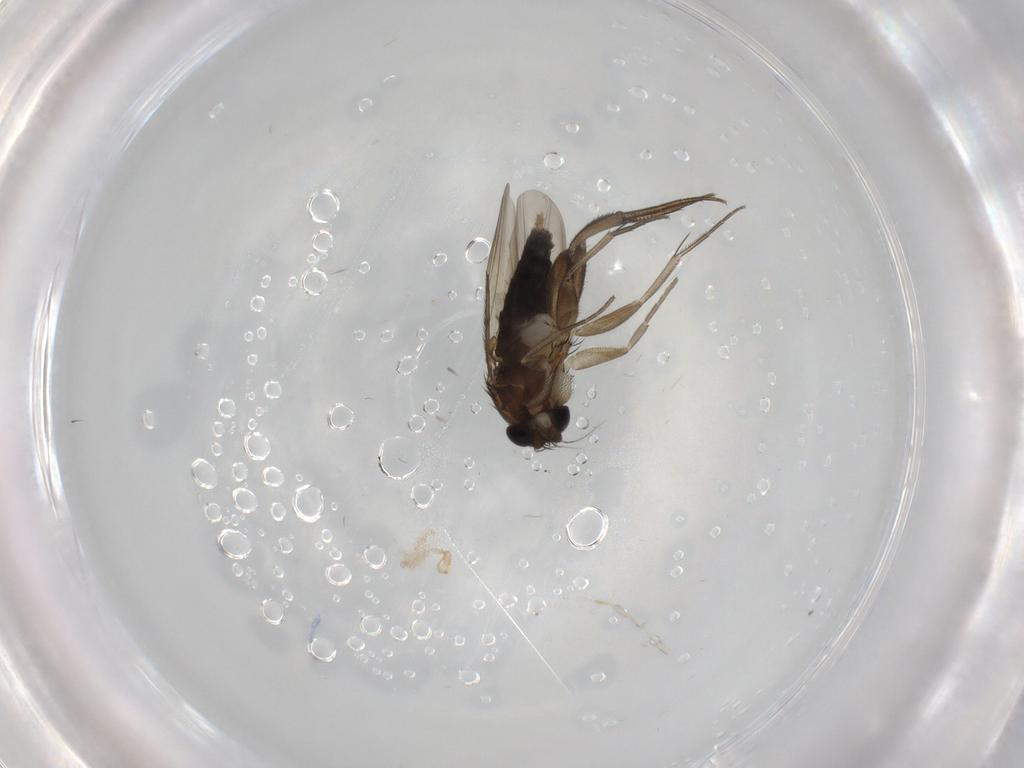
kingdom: Animalia
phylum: Arthropoda
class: Insecta
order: Diptera
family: Phoridae
